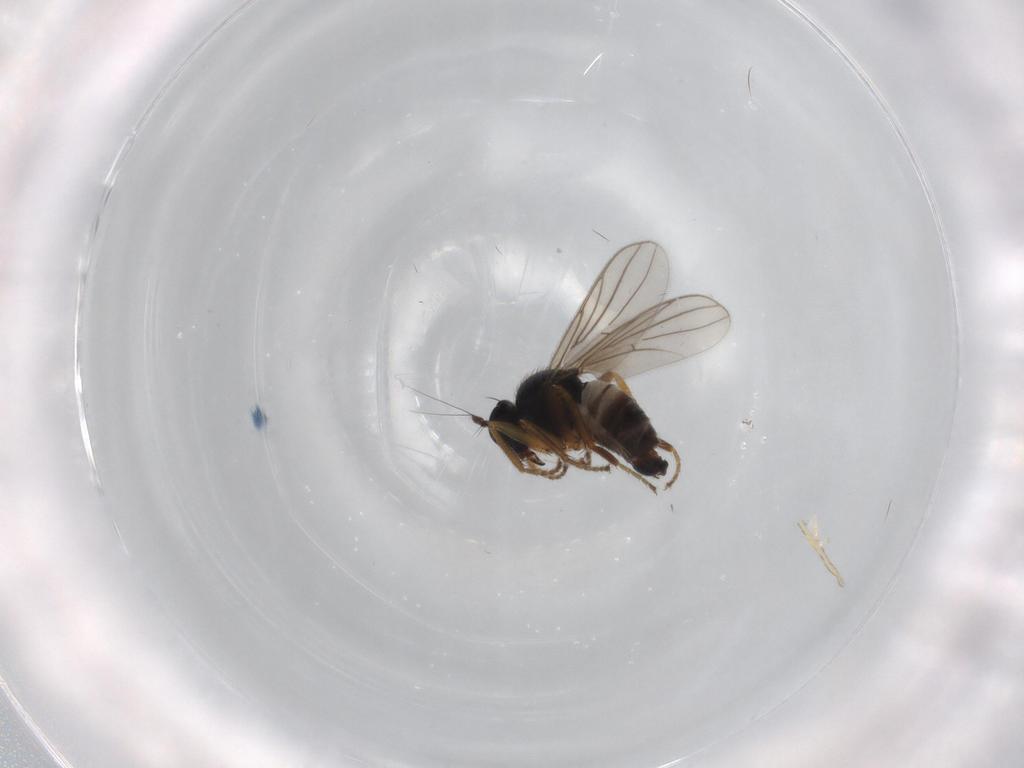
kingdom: Animalia
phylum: Arthropoda
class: Insecta
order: Diptera
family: Hybotidae
